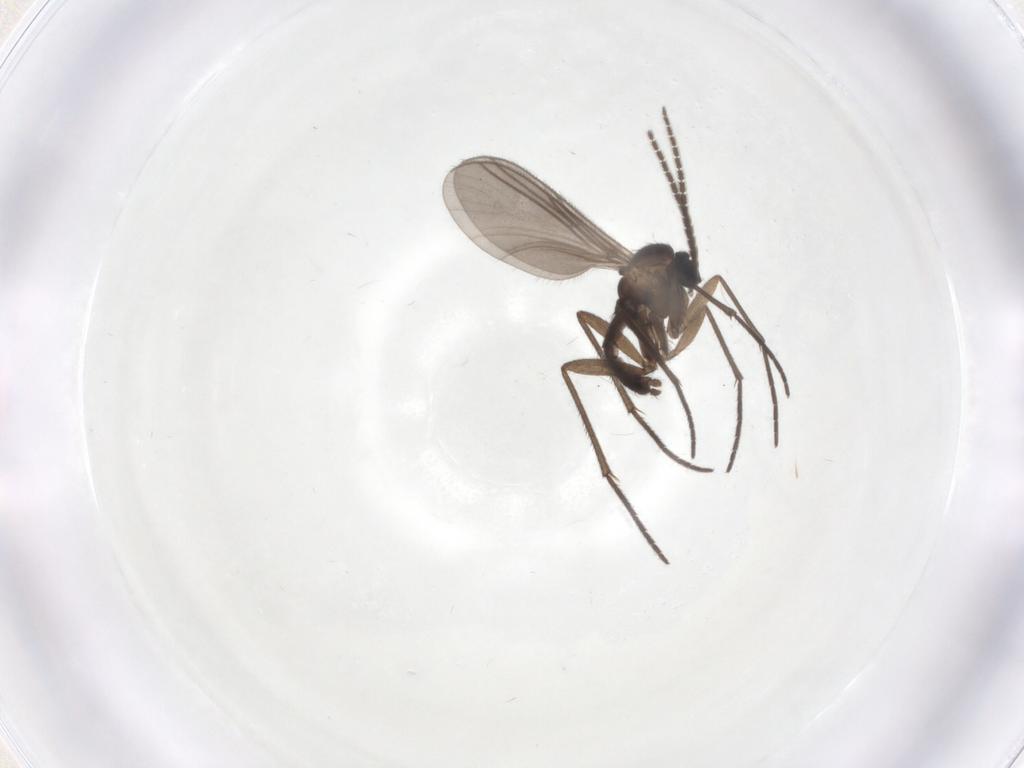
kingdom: Animalia
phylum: Arthropoda
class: Insecta
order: Diptera
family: Sciaridae
